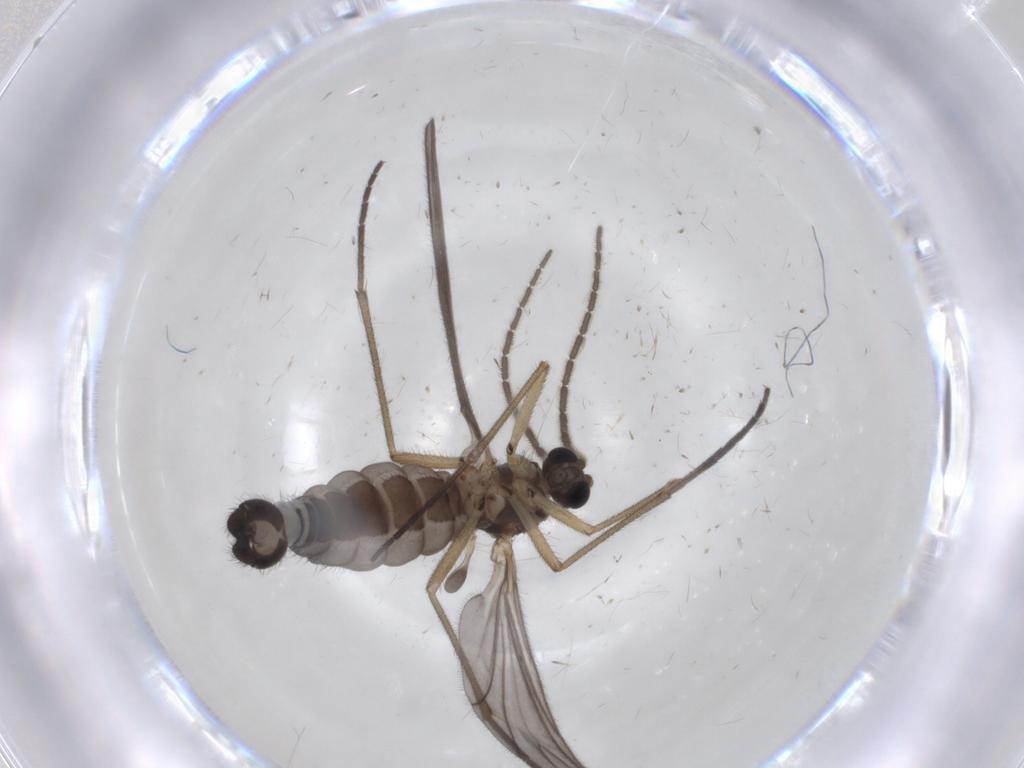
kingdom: Animalia
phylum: Arthropoda
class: Insecta
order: Diptera
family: Sciaridae
